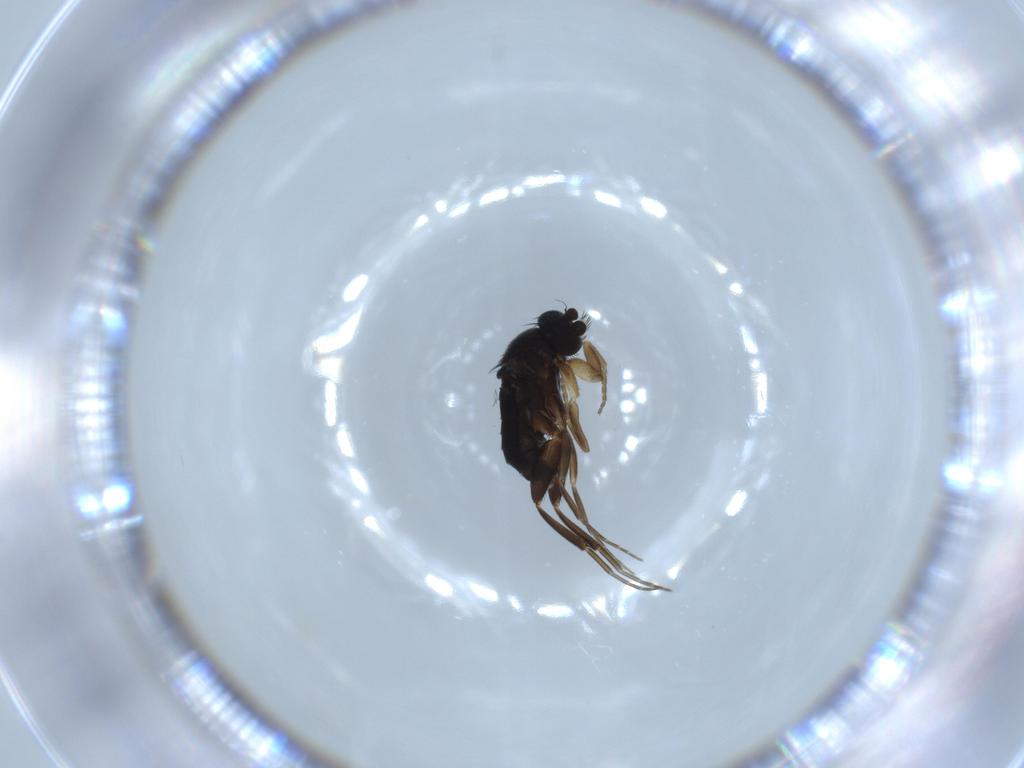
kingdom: Animalia
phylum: Arthropoda
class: Insecta
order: Diptera
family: Phoridae
